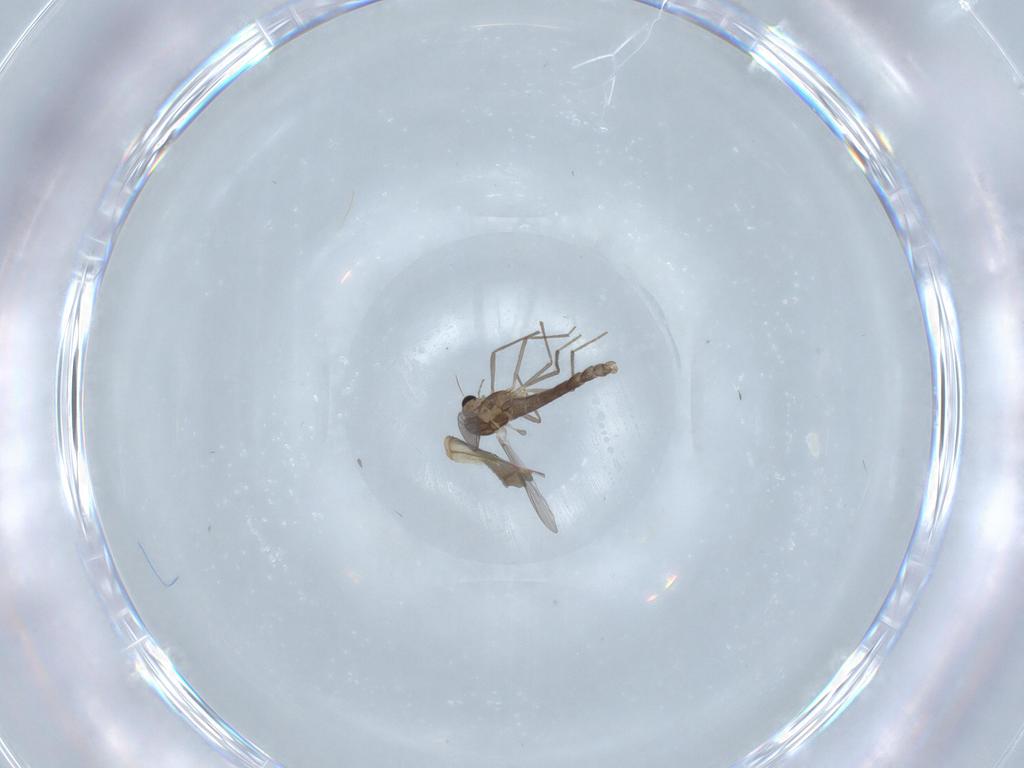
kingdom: Animalia
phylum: Arthropoda
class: Insecta
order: Diptera
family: Chironomidae
